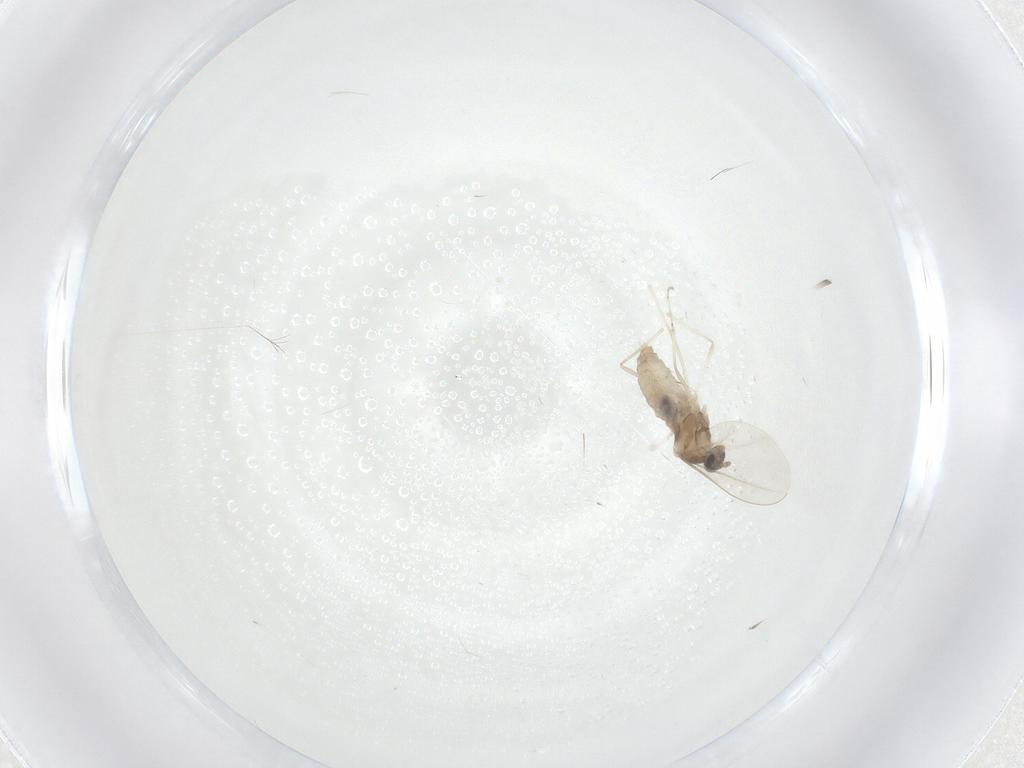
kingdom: Animalia
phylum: Arthropoda
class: Insecta
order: Diptera
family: Cecidomyiidae
